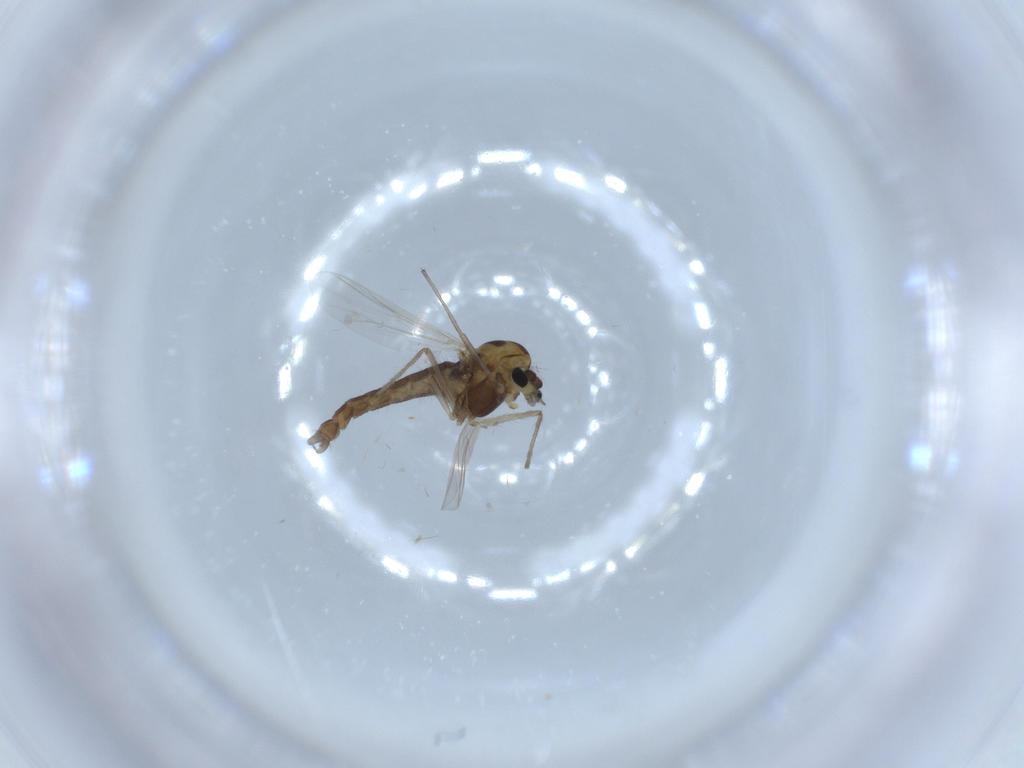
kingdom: Animalia
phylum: Arthropoda
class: Insecta
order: Diptera
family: Chironomidae
